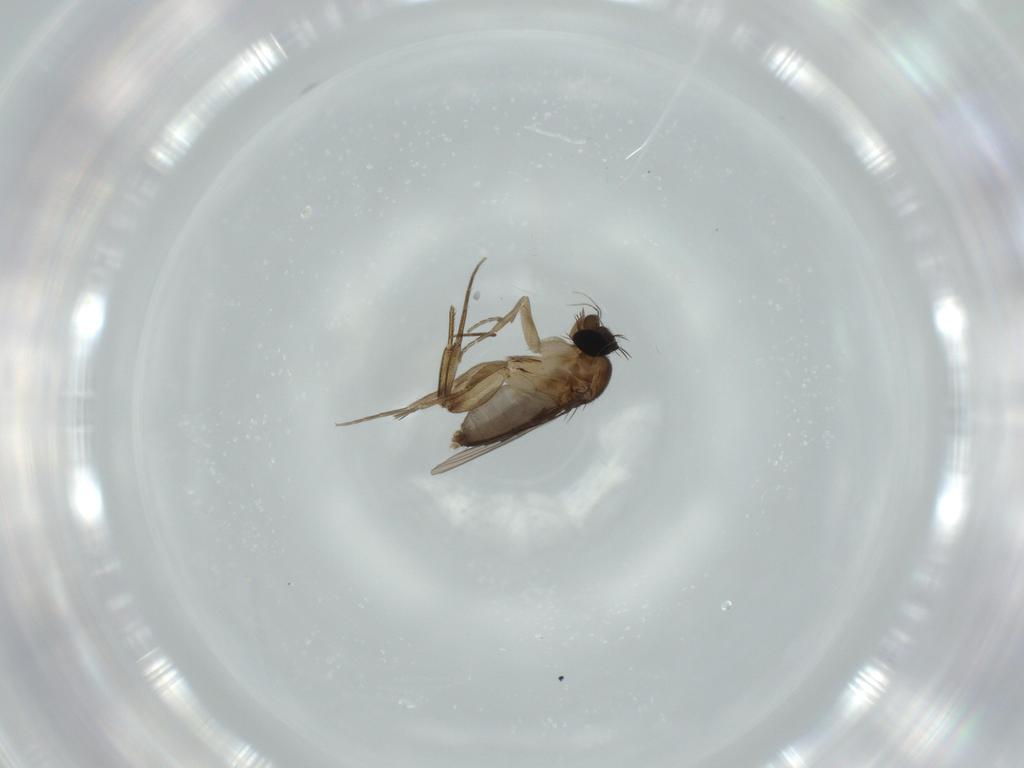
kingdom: Animalia
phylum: Arthropoda
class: Insecta
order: Diptera
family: Phoridae
